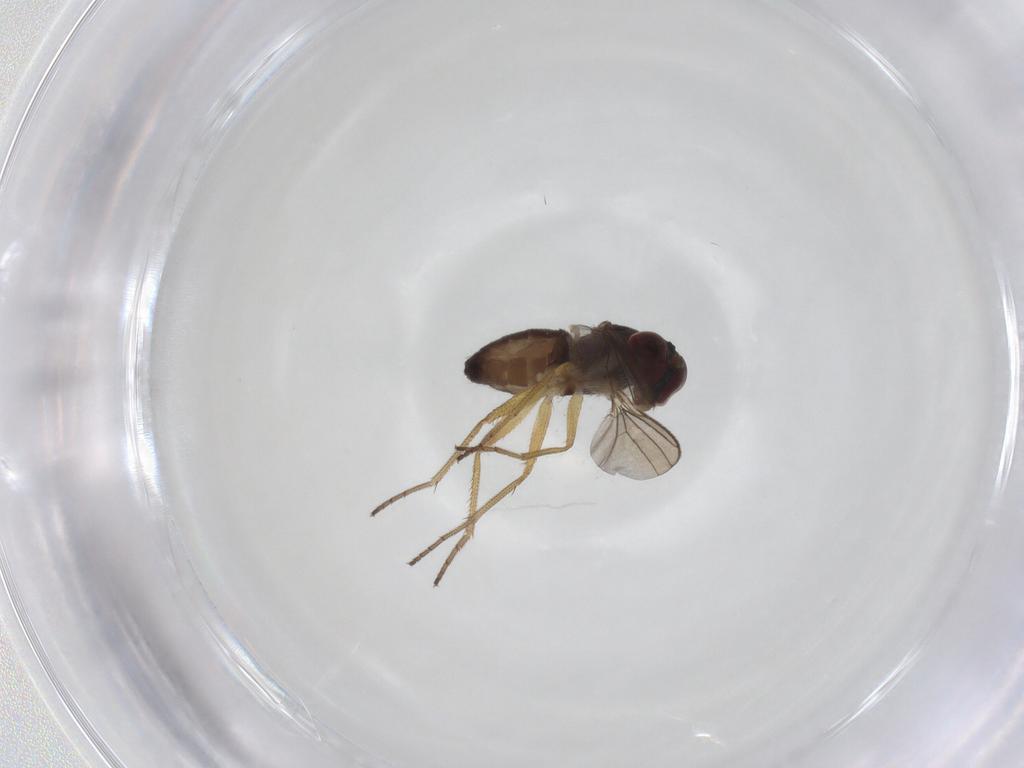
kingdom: Animalia
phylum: Arthropoda
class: Insecta
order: Diptera
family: Dolichopodidae
